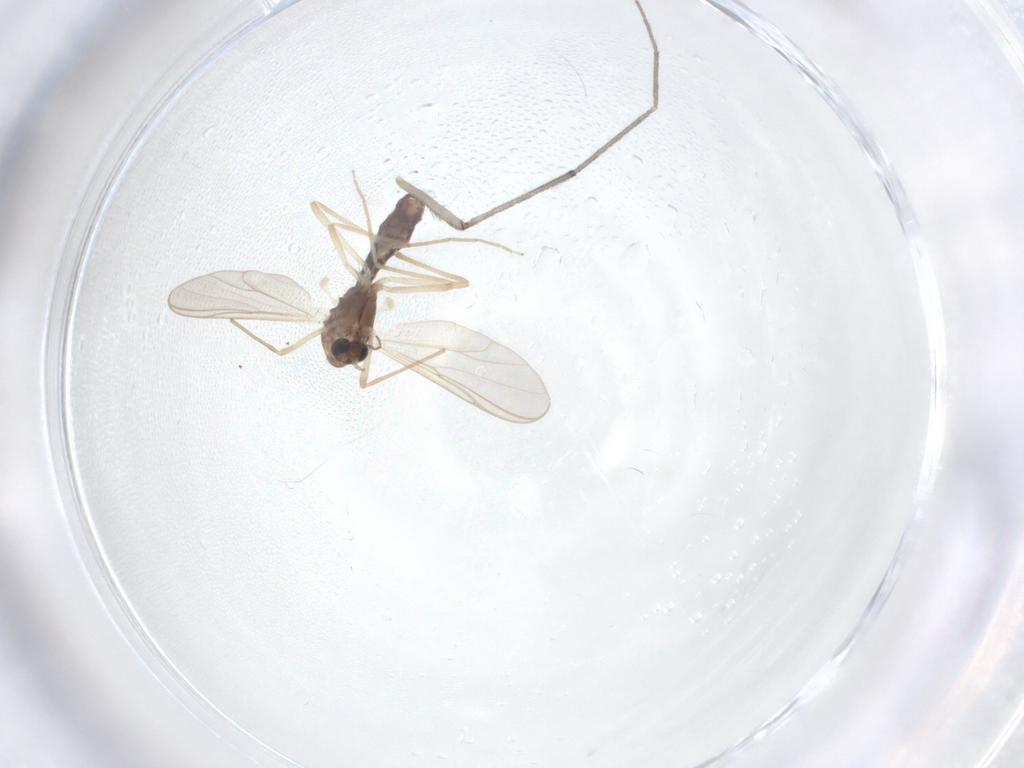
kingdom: Animalia
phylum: Arthropoda
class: Insecta
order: Diptera
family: Chironomidae
